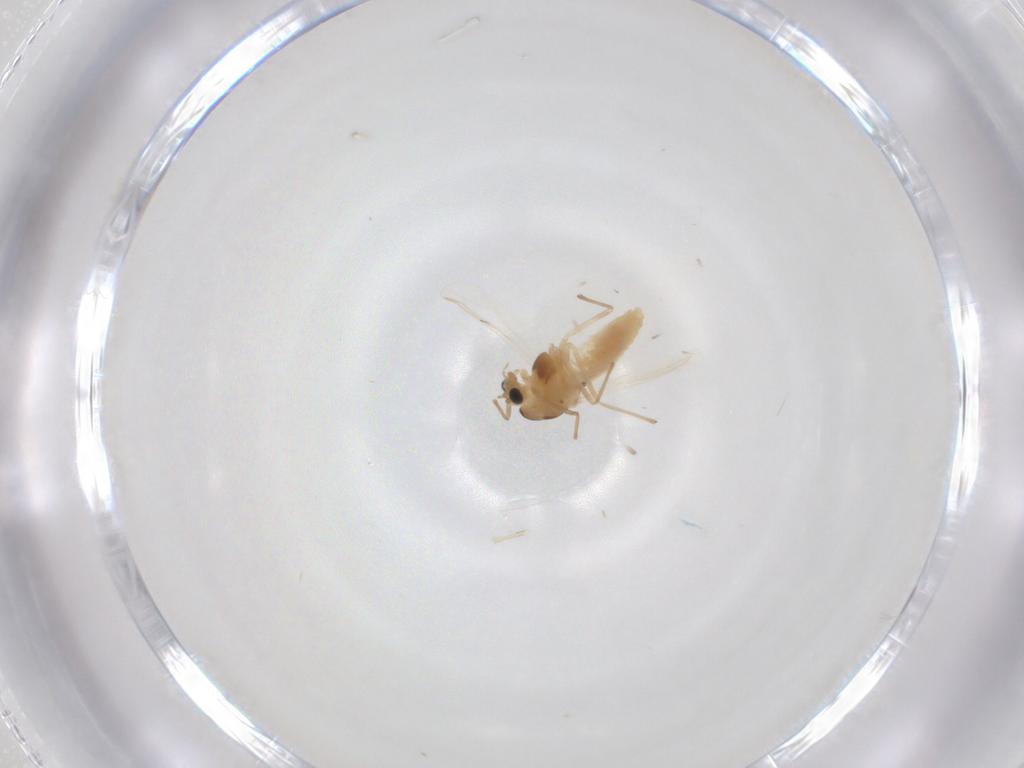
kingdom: Animalia
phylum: Arthropoda
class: Insecta
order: Diptera
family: Chironomidae
